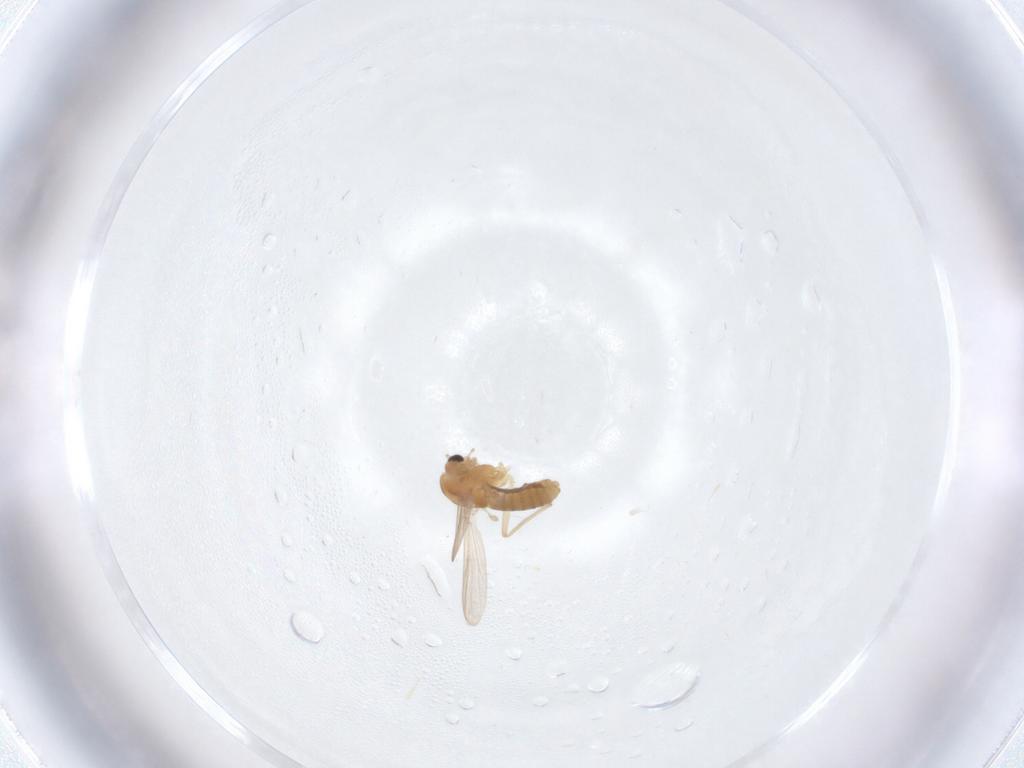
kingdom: Animalia
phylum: Arthropoda
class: Insecta
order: Diptera
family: Chironomidae
